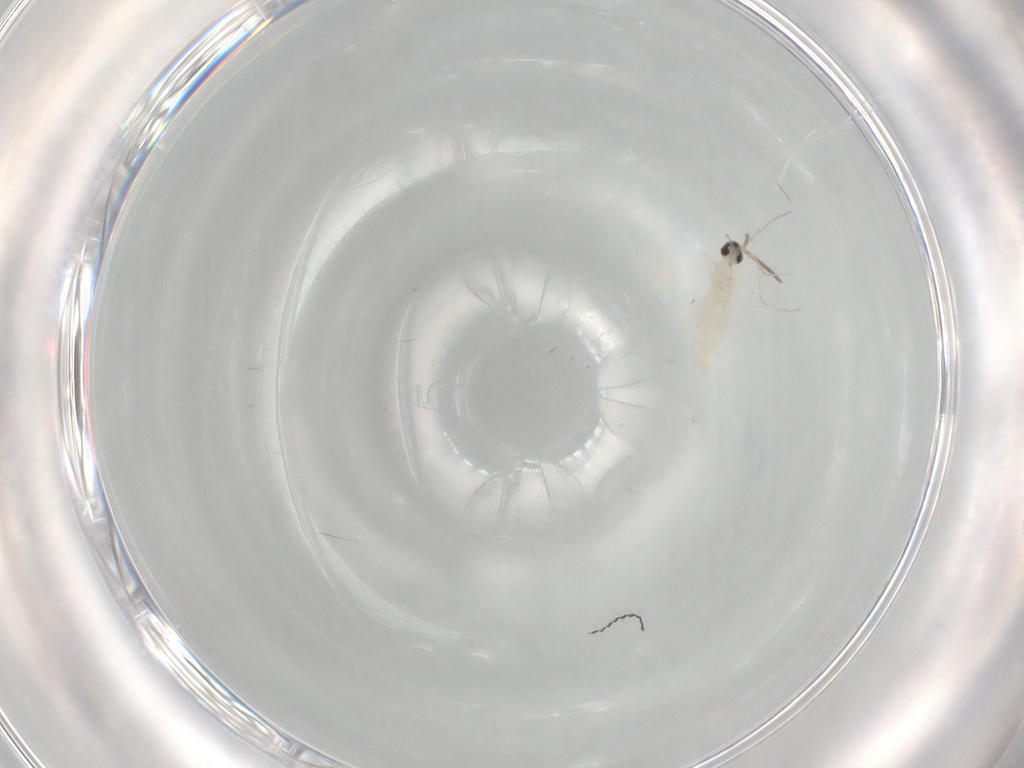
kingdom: Animalia
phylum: Arthropoda
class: Insecta
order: Diptera
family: Cecidomyiidae
